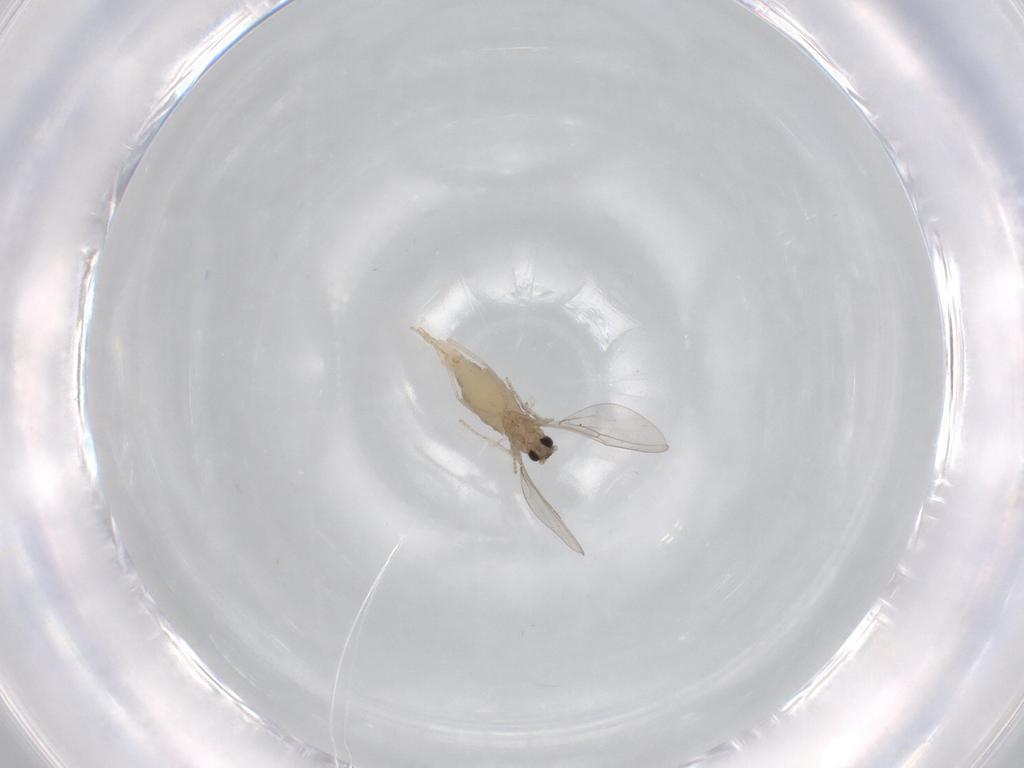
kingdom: Animalia
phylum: Arthropoda
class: Insecta
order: Diptera
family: Cecidomyiidae
